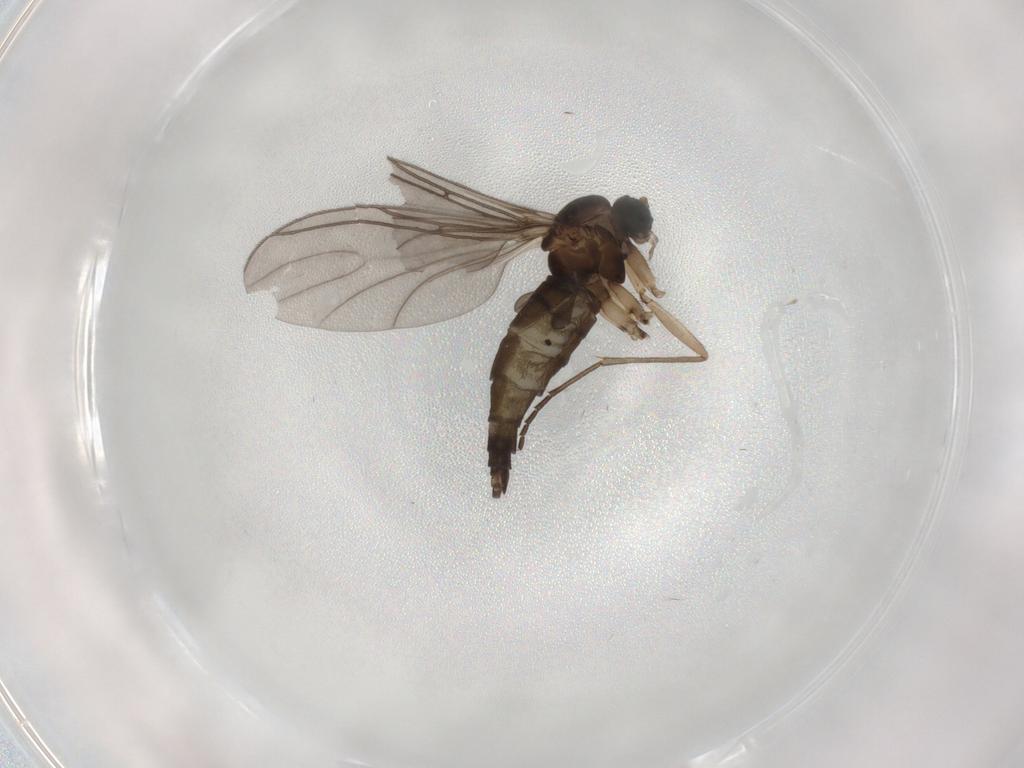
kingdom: Animalia
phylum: Arthropoda
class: Insecta
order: Diptera
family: Sciaridae
